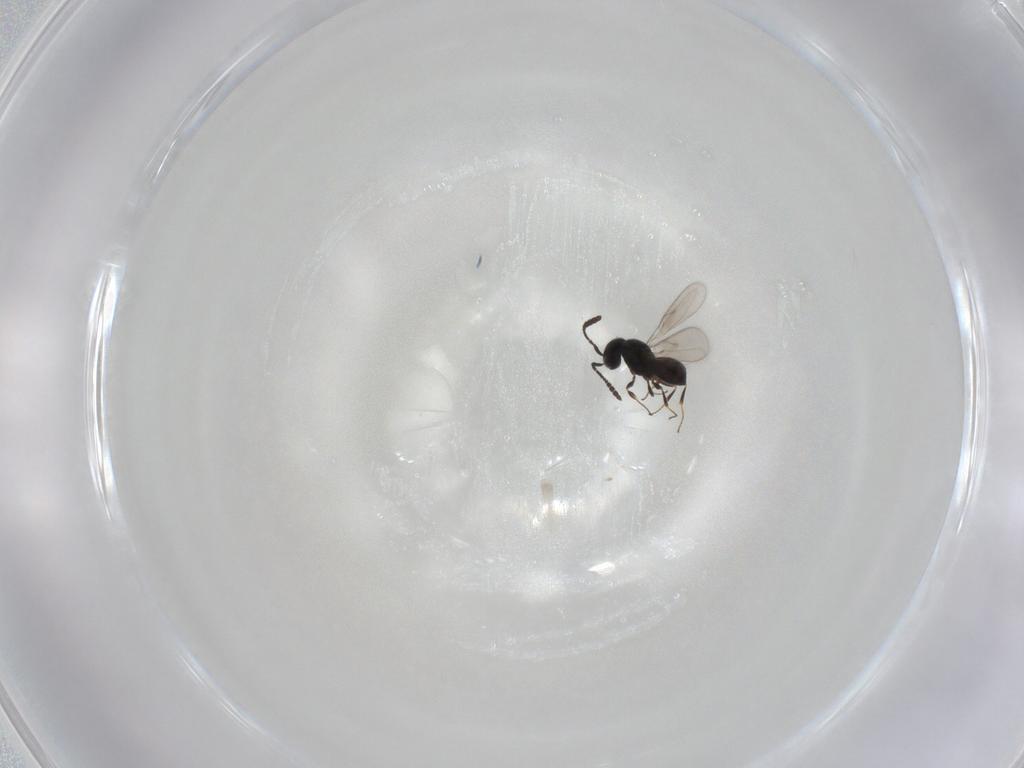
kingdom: Animalia
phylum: Arthropoda
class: Insecta
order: Hymenoptera
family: Scelionidae
